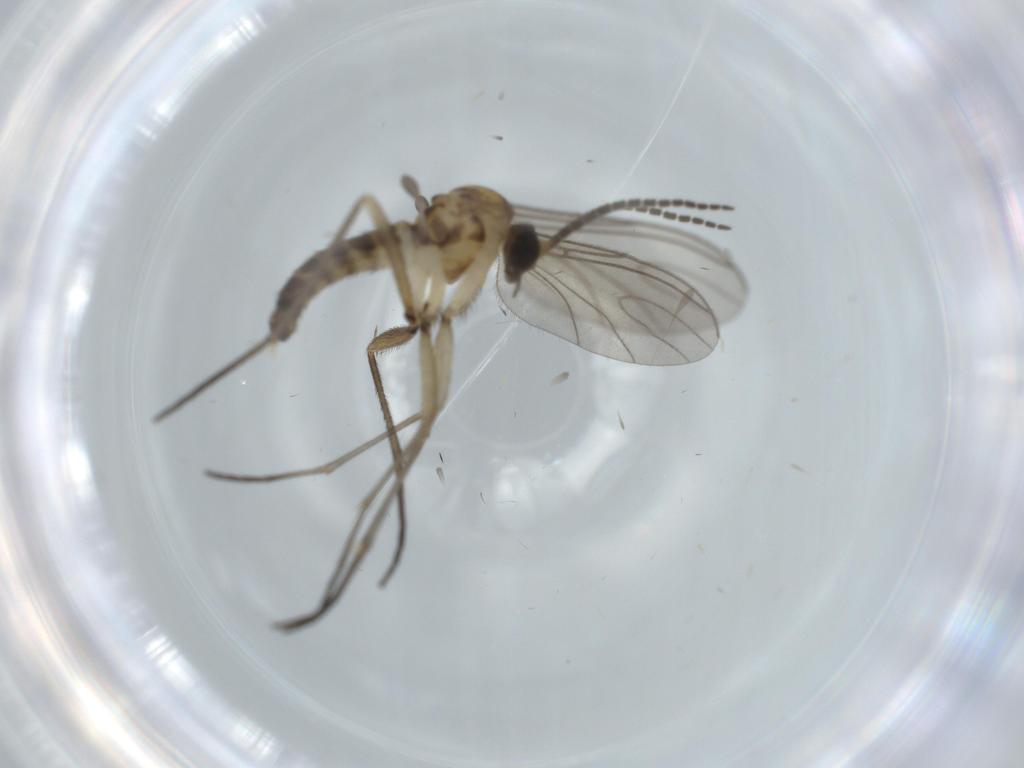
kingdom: Animalia
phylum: Arthropoda
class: Insecta
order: Diptera
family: Sciaridae
